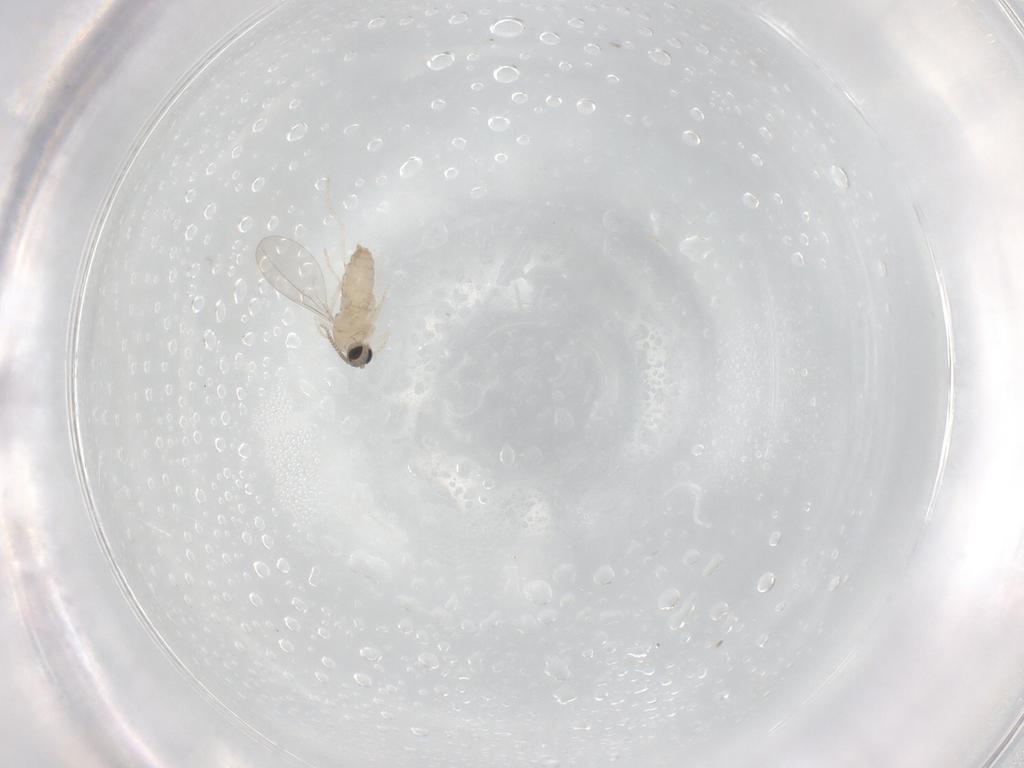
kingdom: Animalia
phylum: Arthropoda
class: Insecta
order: Diptera
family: Cecidomyiidae
